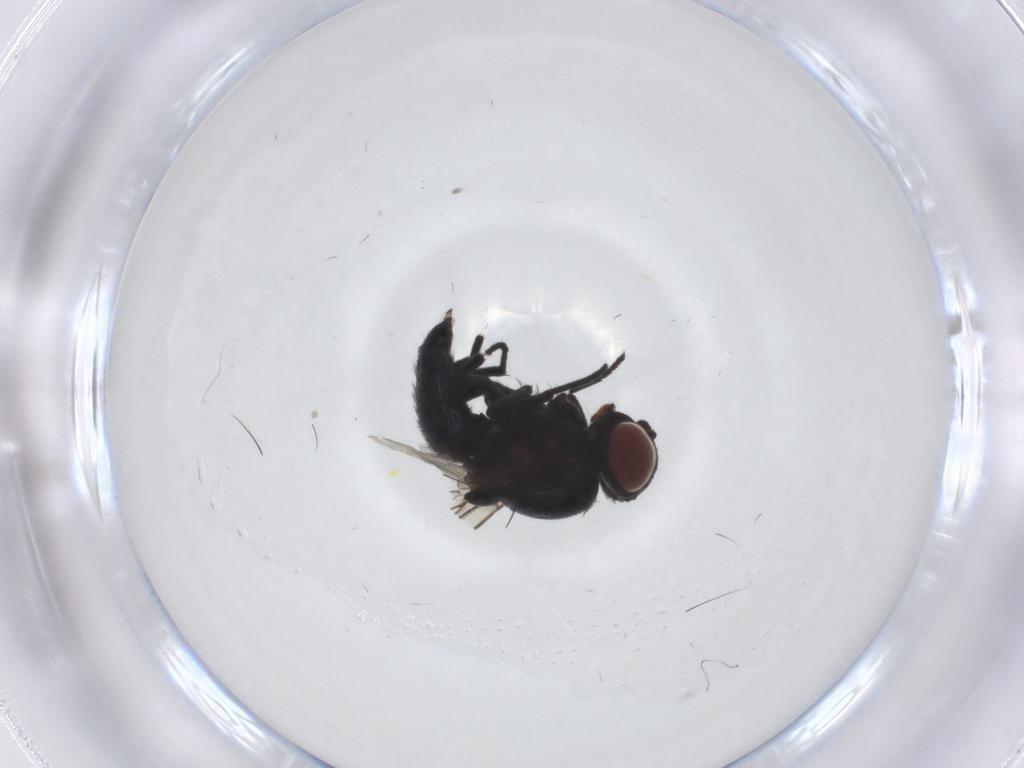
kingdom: Animalia
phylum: Arthropoda
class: Insecta
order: Diptera
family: Agromyzidae
